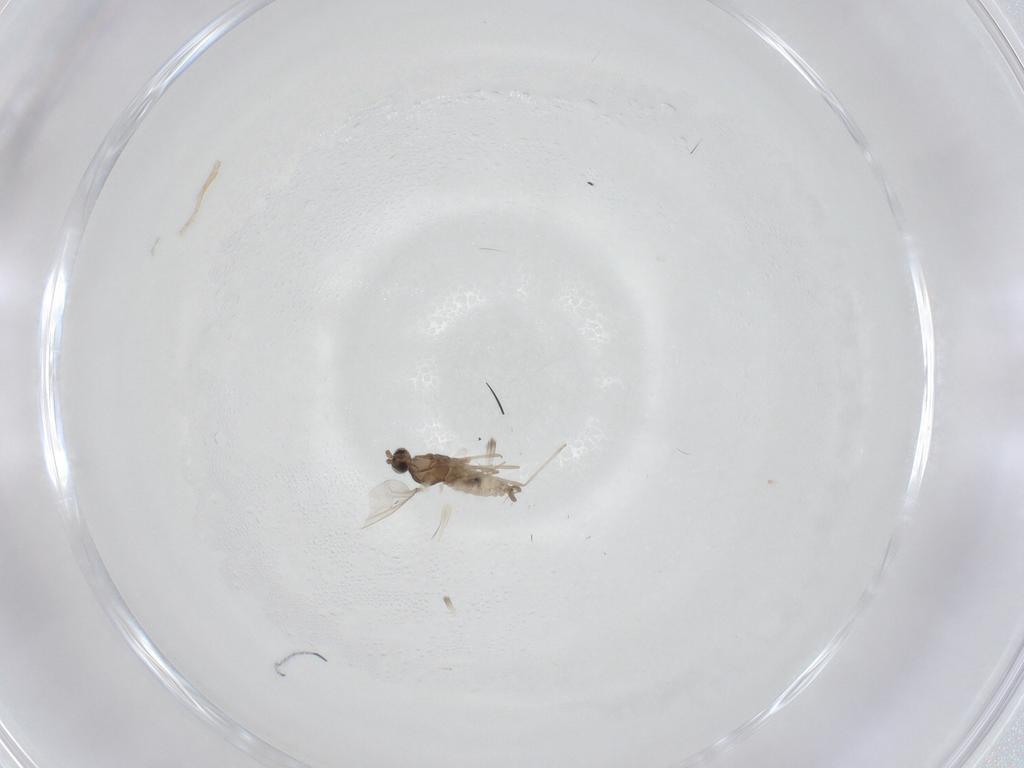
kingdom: Animalia
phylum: Arthropoda
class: Insecta
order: Diptera
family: Cecidomyiidae
